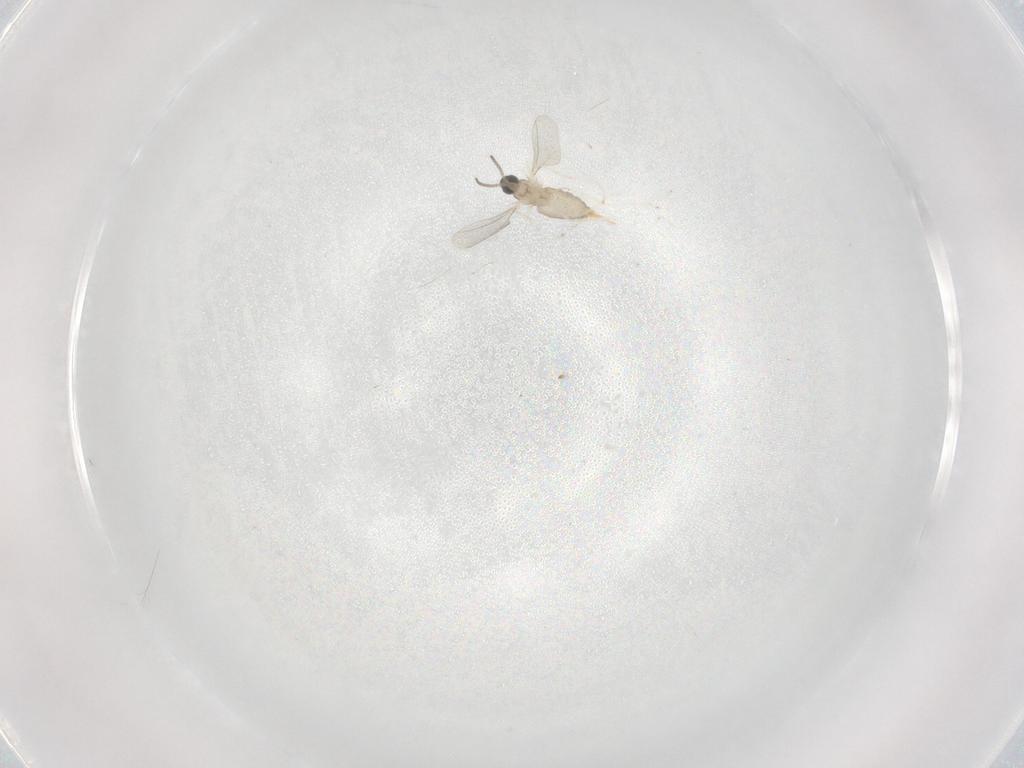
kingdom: Animalia
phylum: Arthropoda
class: Insecta
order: Diptera
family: Cecidomyiidae
